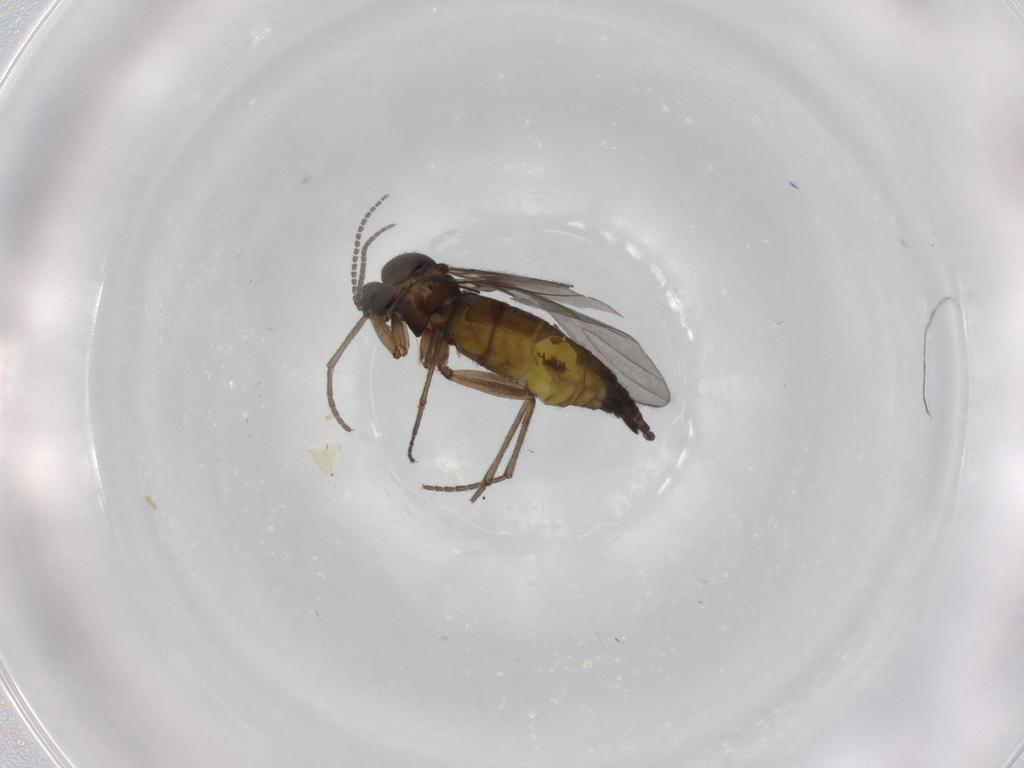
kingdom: Animalia
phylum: Arthropoda
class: Insecta
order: Diptera
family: Sciaridae
